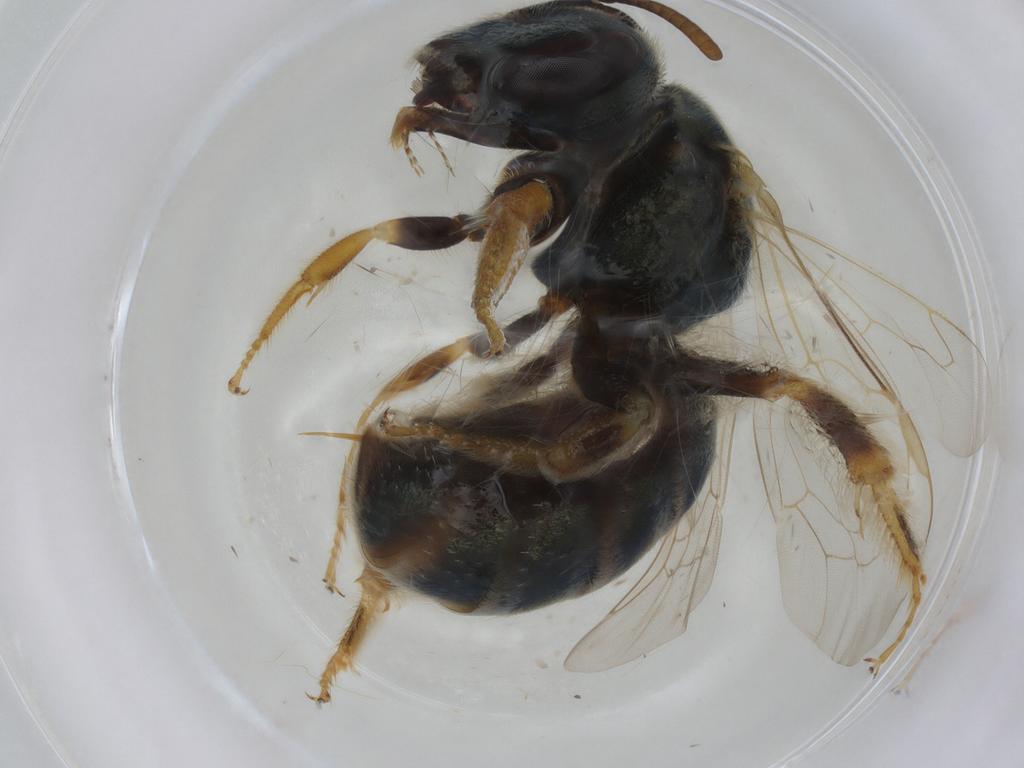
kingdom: Animalia
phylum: Arthropoda
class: Insecta
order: Hymenoptera
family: Halictidae
